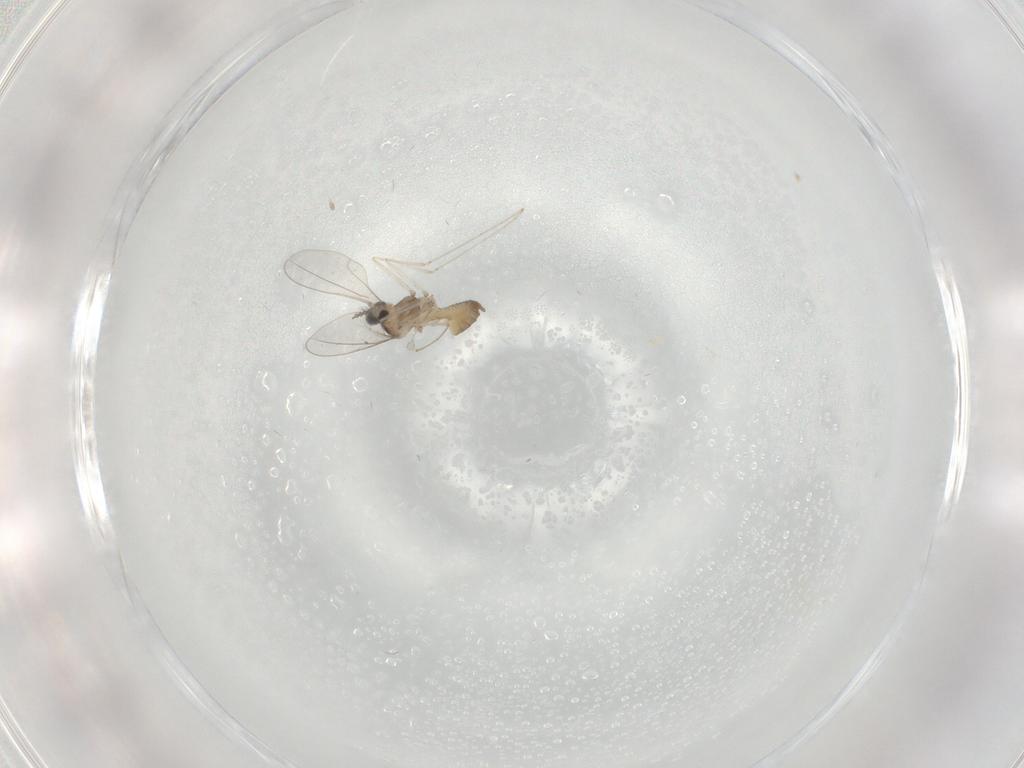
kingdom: Animalia
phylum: Arthropoda
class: Insecta
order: Diptera
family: Cecidomyiidae
